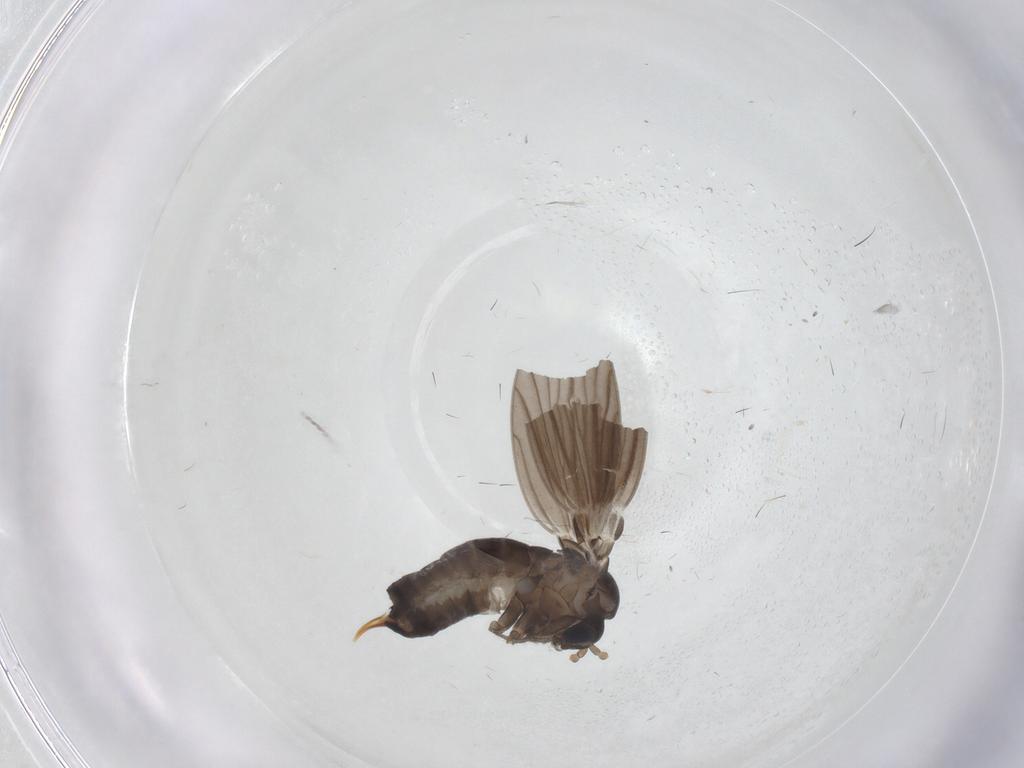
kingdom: Animalia
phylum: Arthropoda
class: Insecta
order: Diptera
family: Psychodidae
